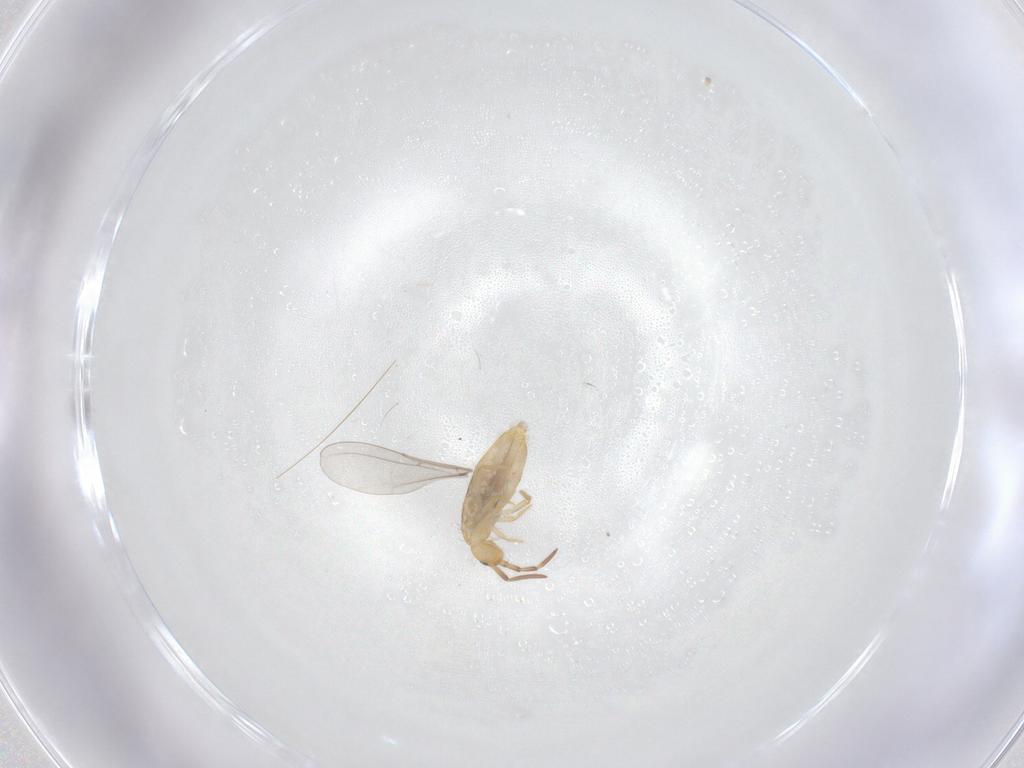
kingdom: Animalia
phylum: Arthropoda
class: Collembola
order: Entomobryomorpha
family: Entomobryidae
